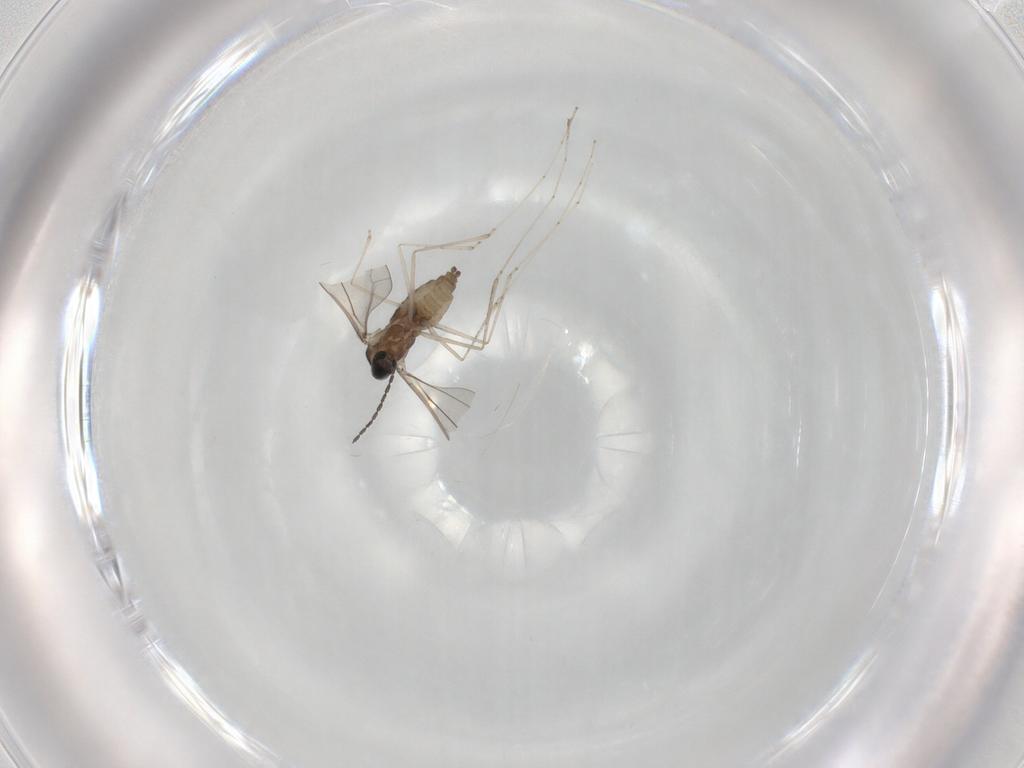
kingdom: Animalia
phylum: Arthropoda
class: Insecta
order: Diptera
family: Cecidomyiidae
